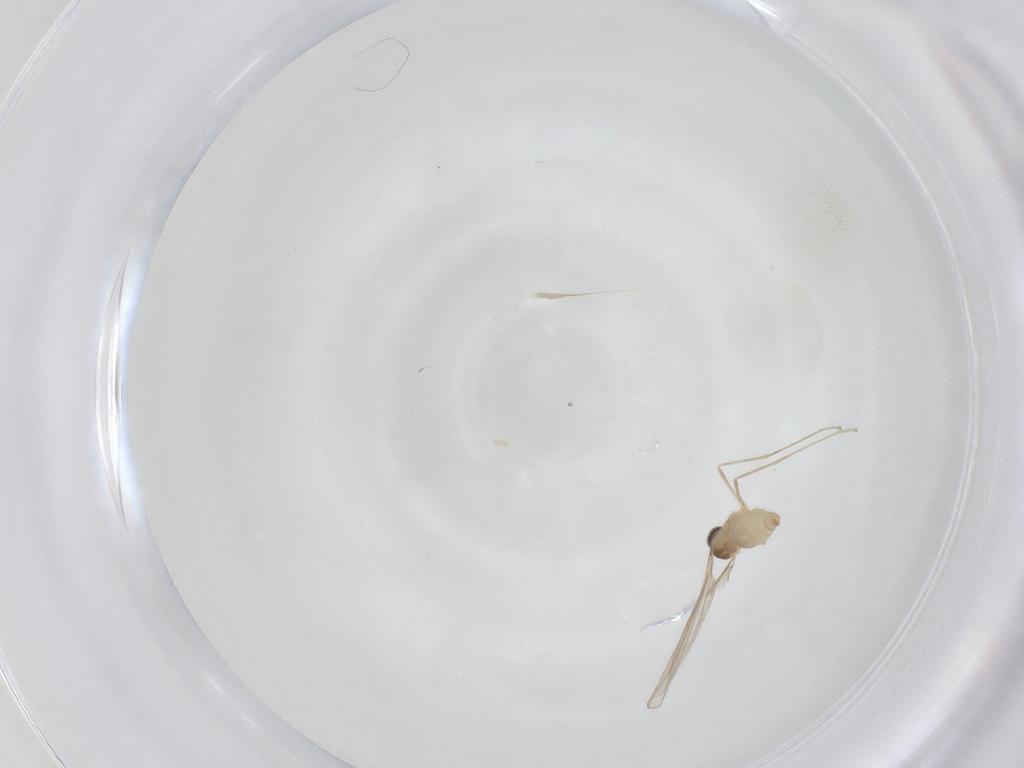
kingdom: Animalia
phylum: Arthropoda
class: Insecta
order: Diptera
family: Cecidomyiidae
